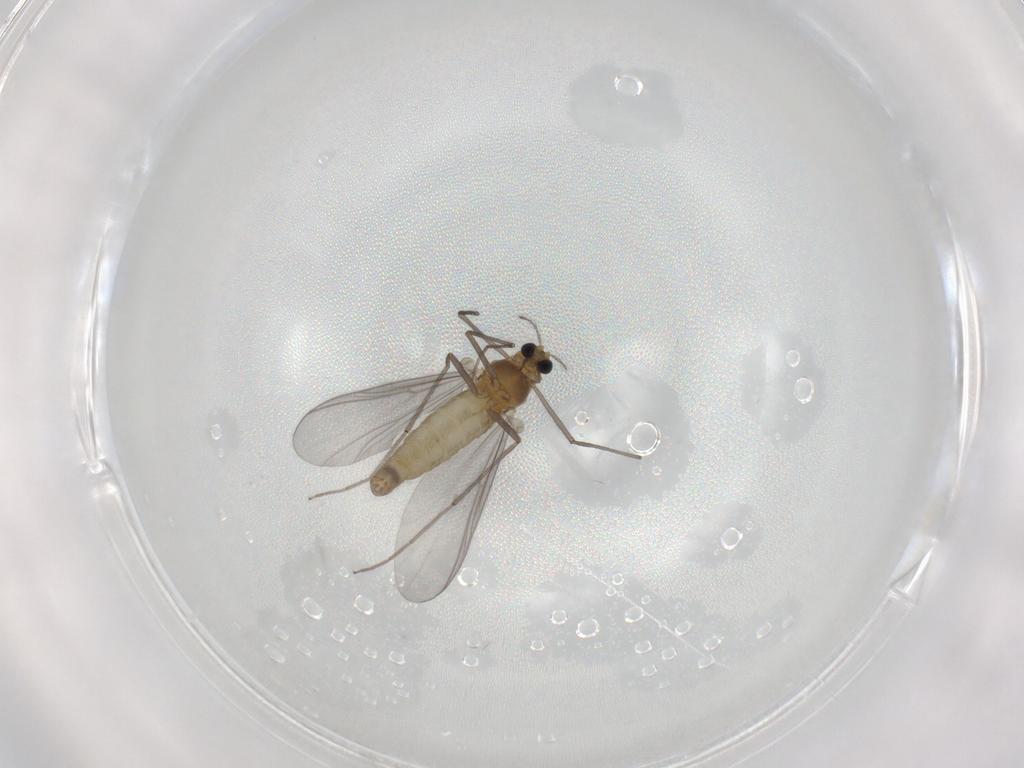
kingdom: Animalia
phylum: Arthropoda
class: Insecta
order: Diptera
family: Chironomidae
